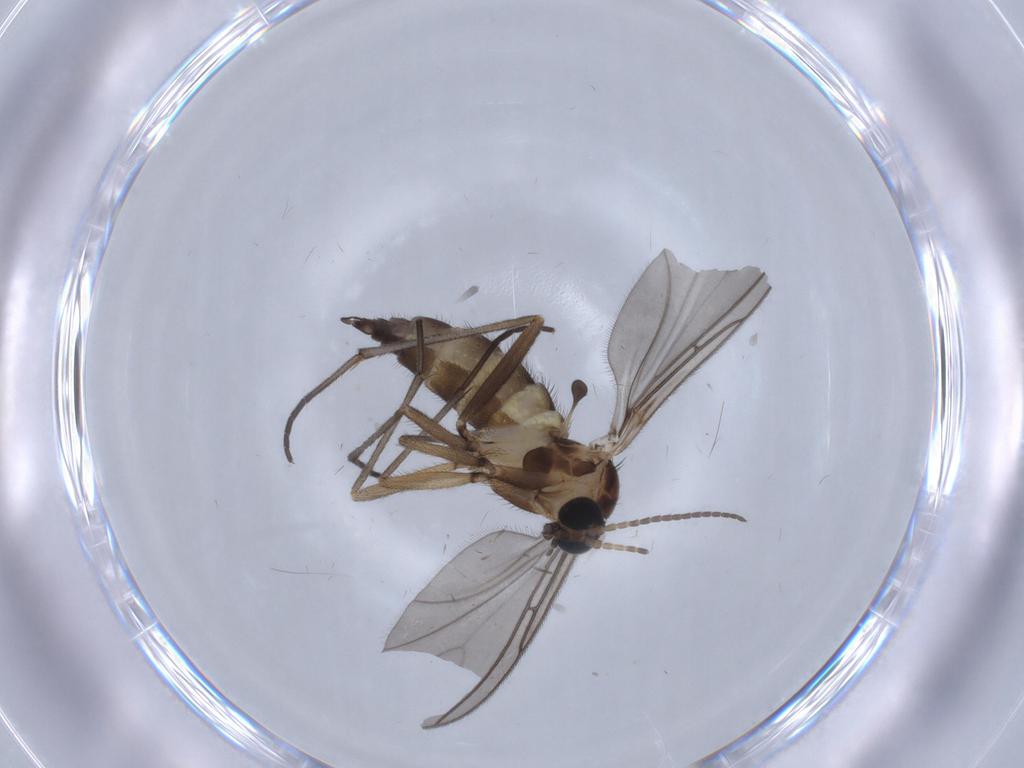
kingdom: Animalia
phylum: Arthropoda
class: Insecta
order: Diptera
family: Sciaridae
